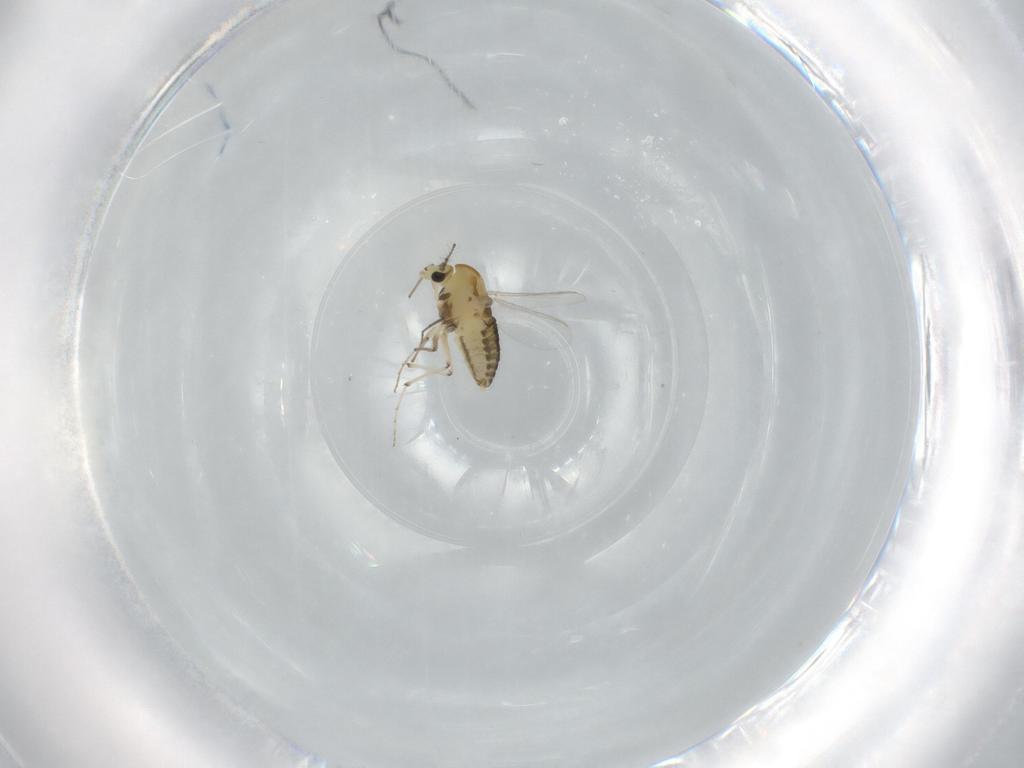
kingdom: Animalia
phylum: Arthropoda
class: Insecta
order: Diptera
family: Chironomidae
